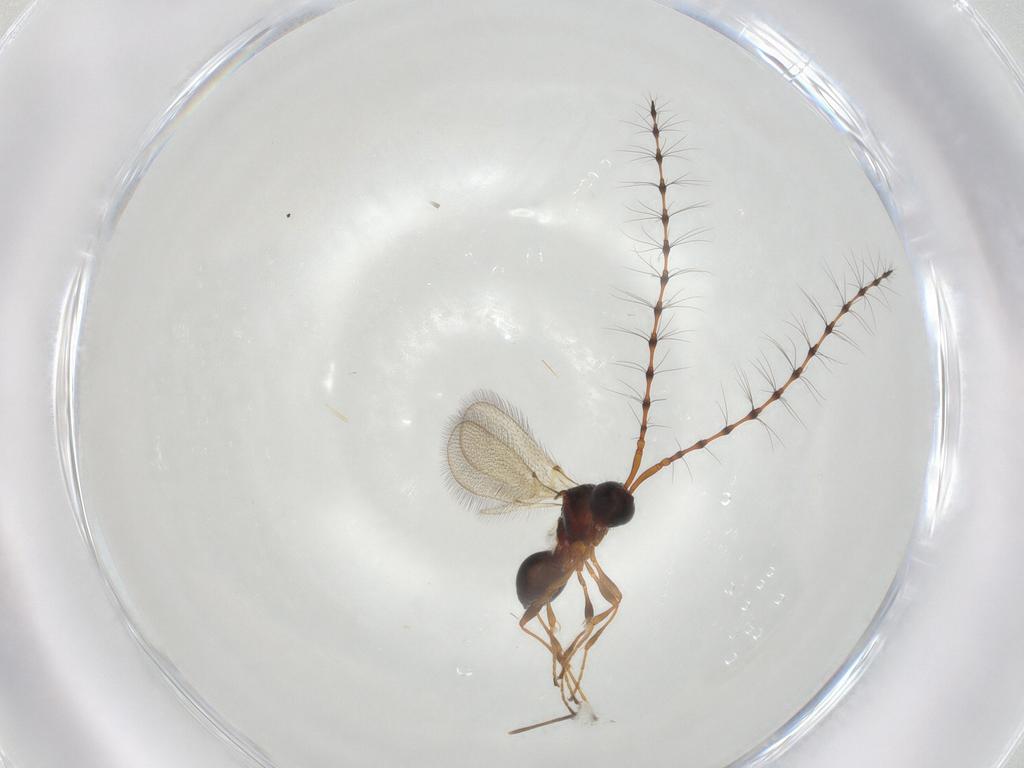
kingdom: Animalia
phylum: Arthropoda
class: Insecta
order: Hymenoptera
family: Diapriidae
